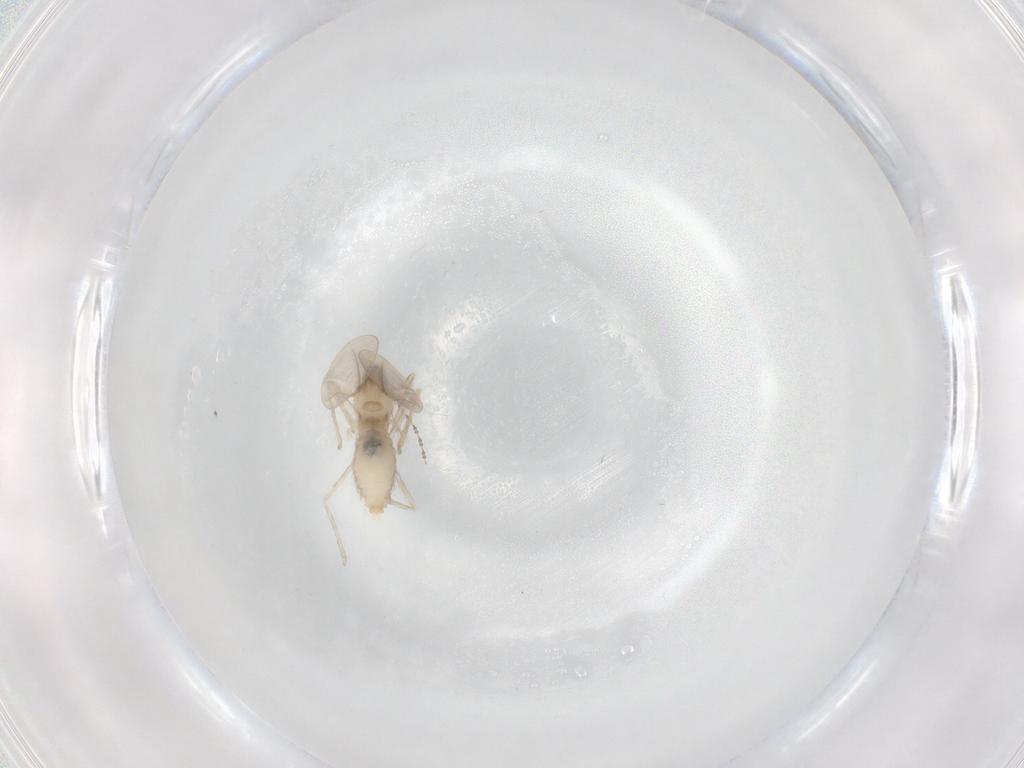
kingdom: Animalia
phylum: Arthropoda
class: Insecta
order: Diptera
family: Cecidomyiidae
